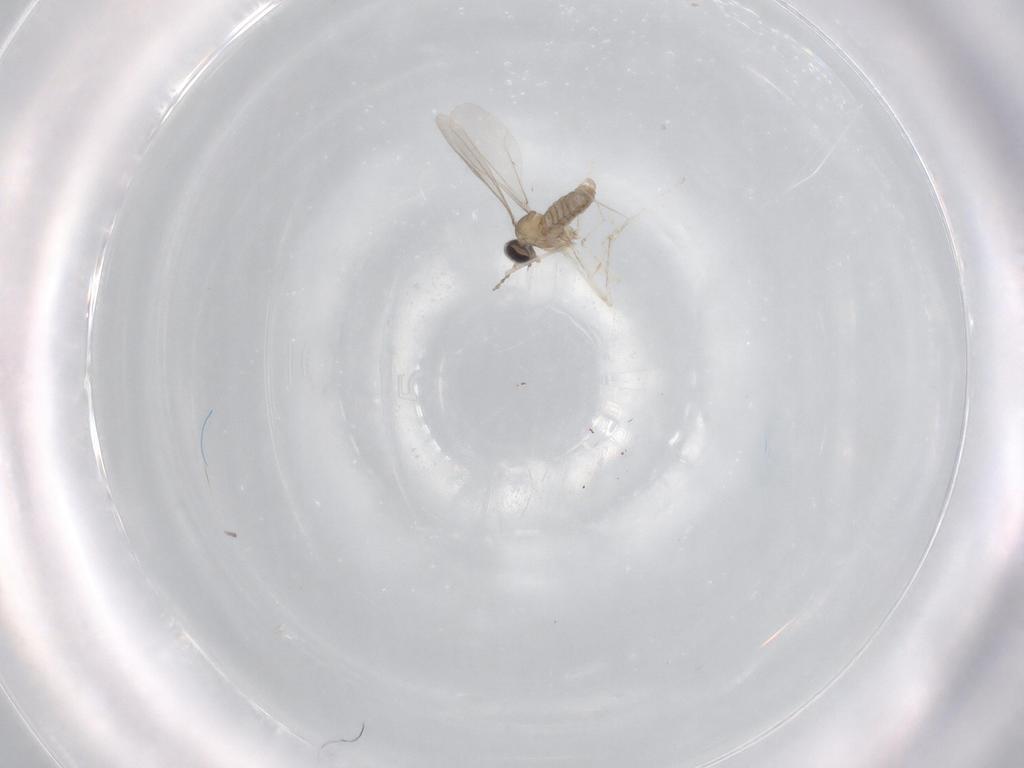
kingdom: Animalia
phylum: Arthropoda
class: Insecta
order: Diptera
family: Cecidomyiidae
